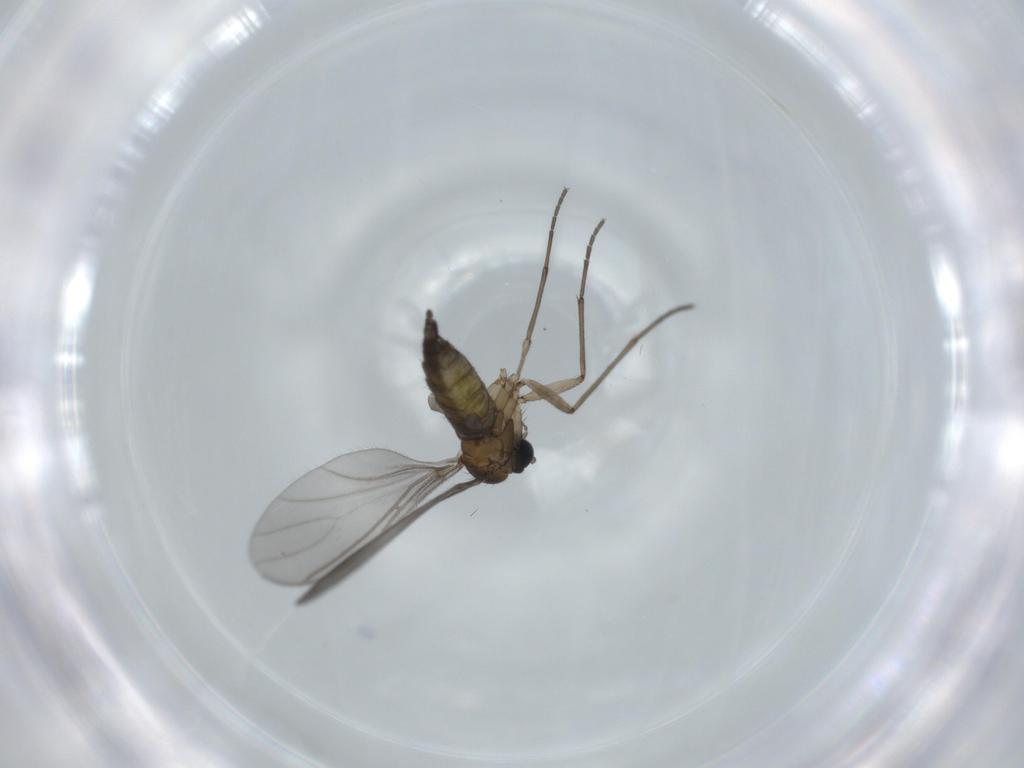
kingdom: Animalia
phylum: Arthropoda
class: Insecta
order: Diptera
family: Sciaridae
